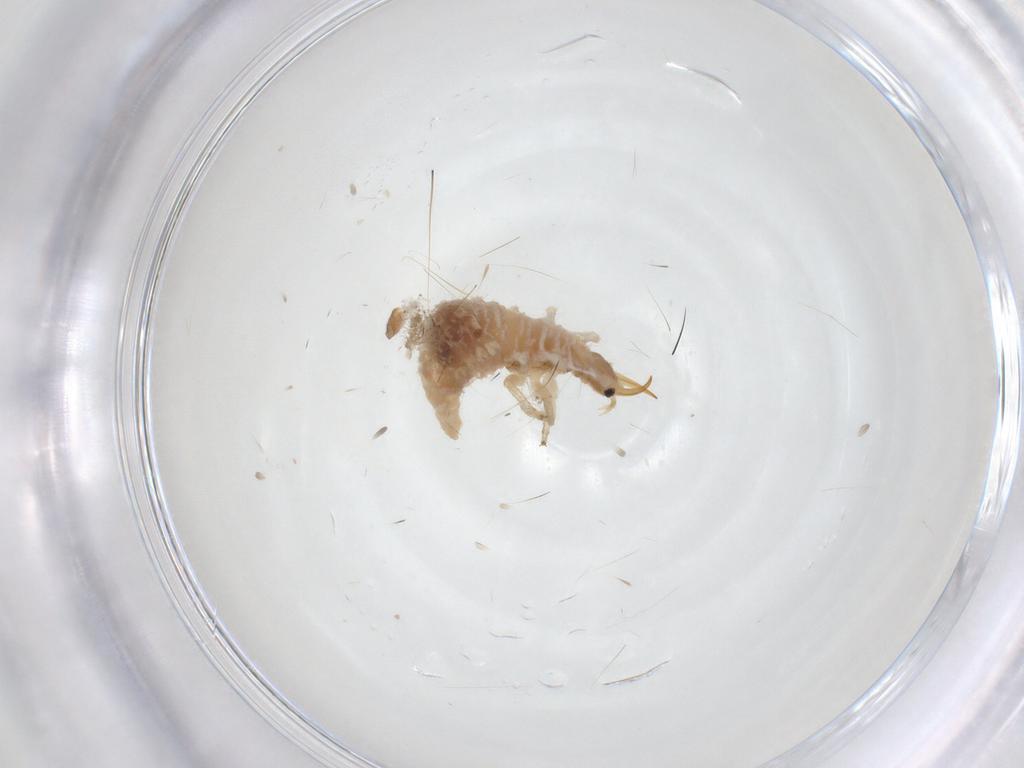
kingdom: Animalia
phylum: Arthropoda
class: Insecta
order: Neuroptera
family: Chrysopidae
